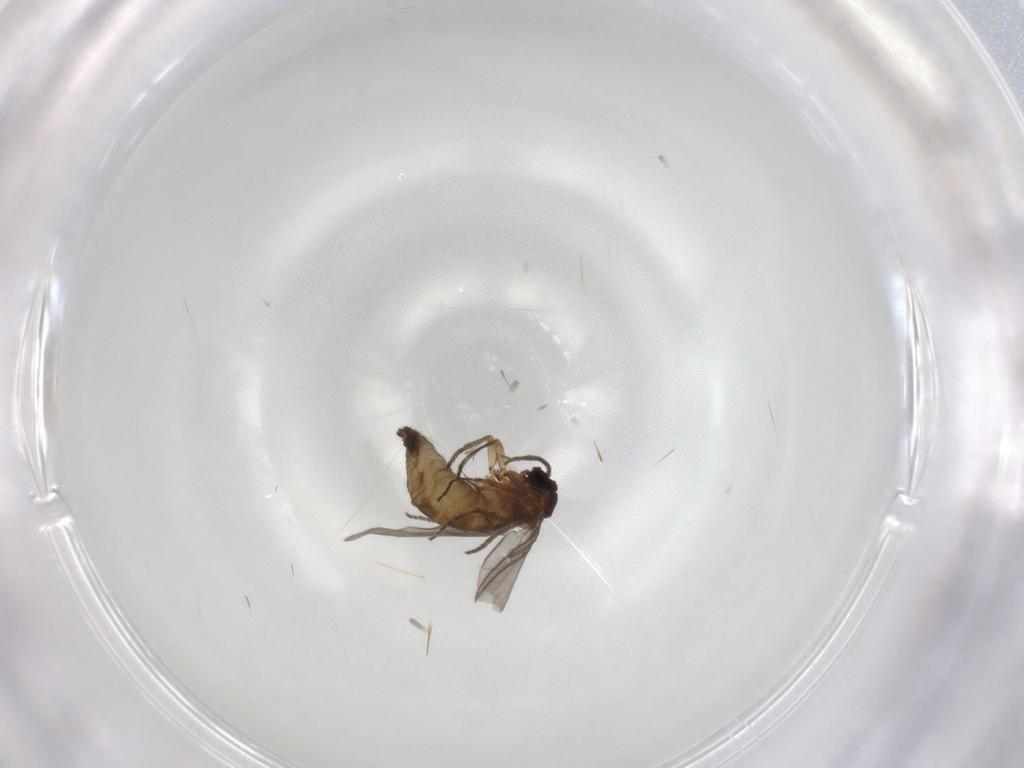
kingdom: Animalia
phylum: Arthropoda
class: Insecta
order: Diptera
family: Sciaridae
